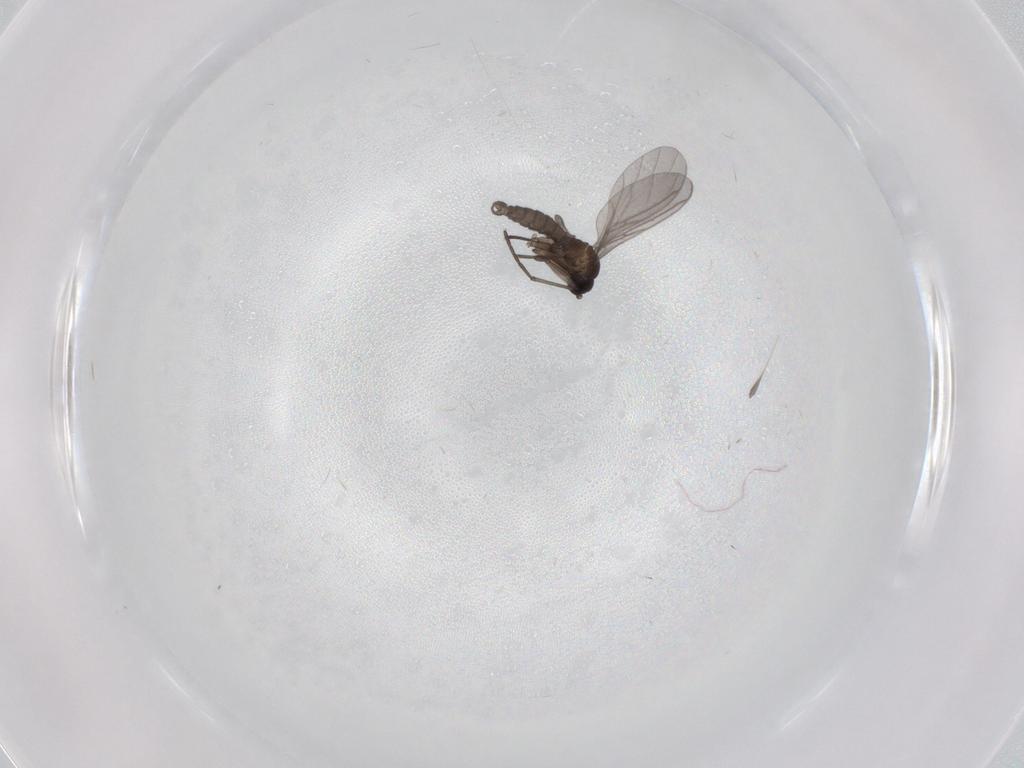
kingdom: Animalia
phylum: Arthropoda
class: Insecta
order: Diptera
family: Sciaridae
